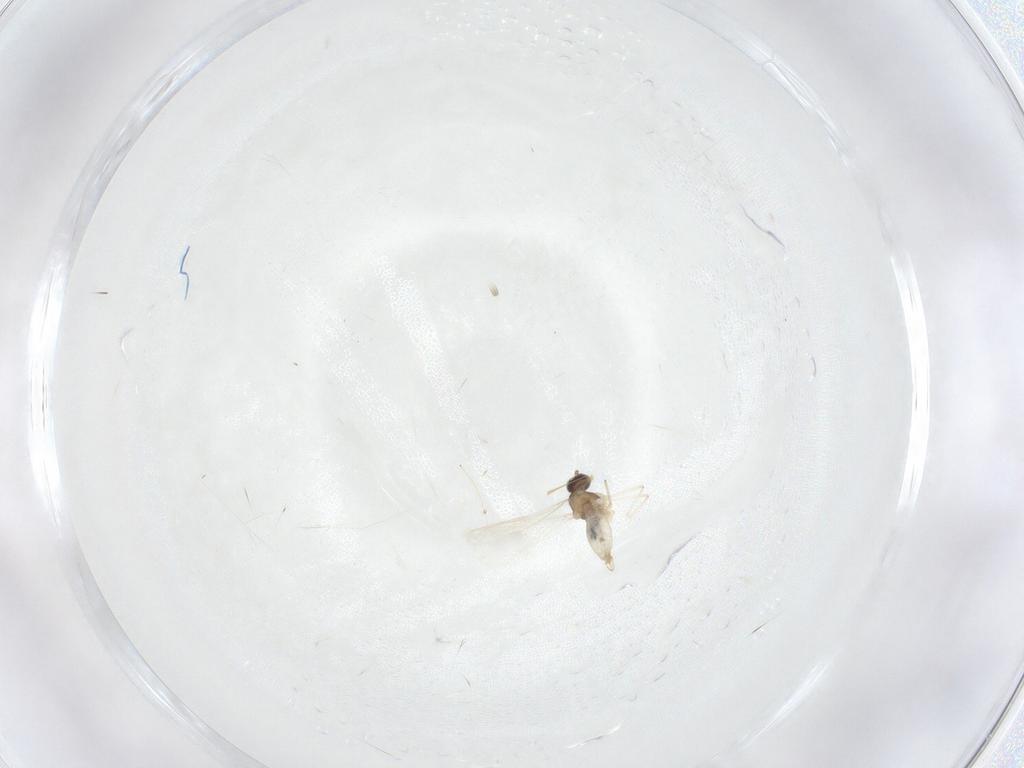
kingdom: Animalia
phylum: Arthropoda
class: Insecta
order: Diptera
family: Cecidomyiidae
